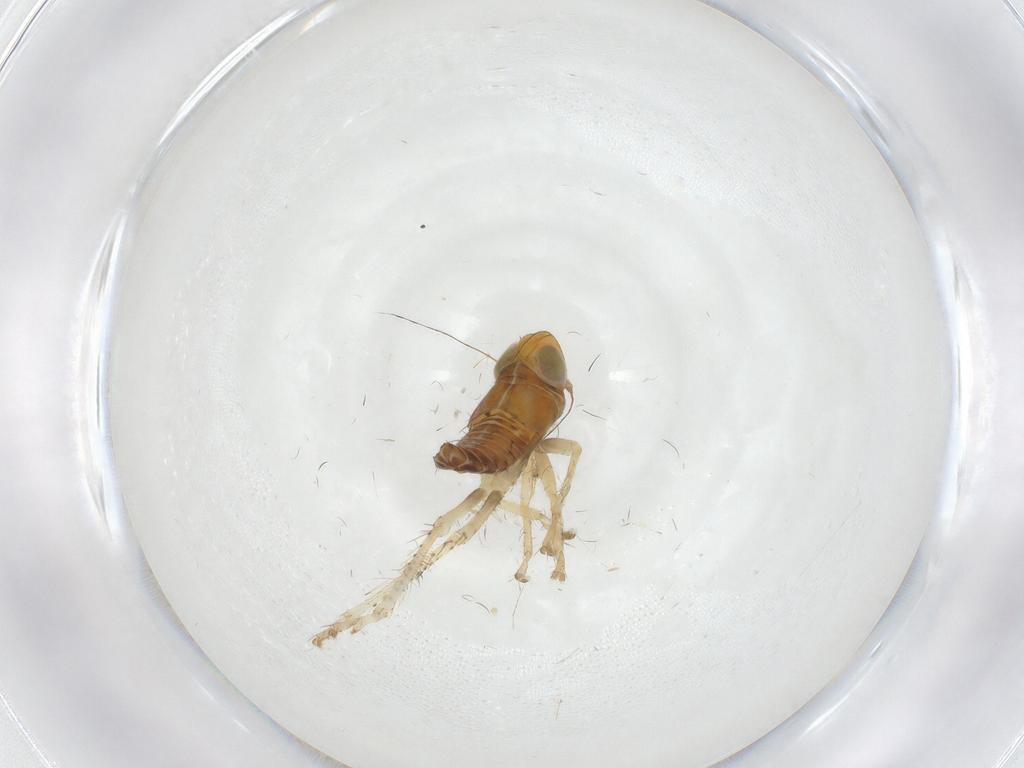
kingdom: Animalia
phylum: Arthropoda
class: Insecta
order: Hemiptera
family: Cicadellidae
